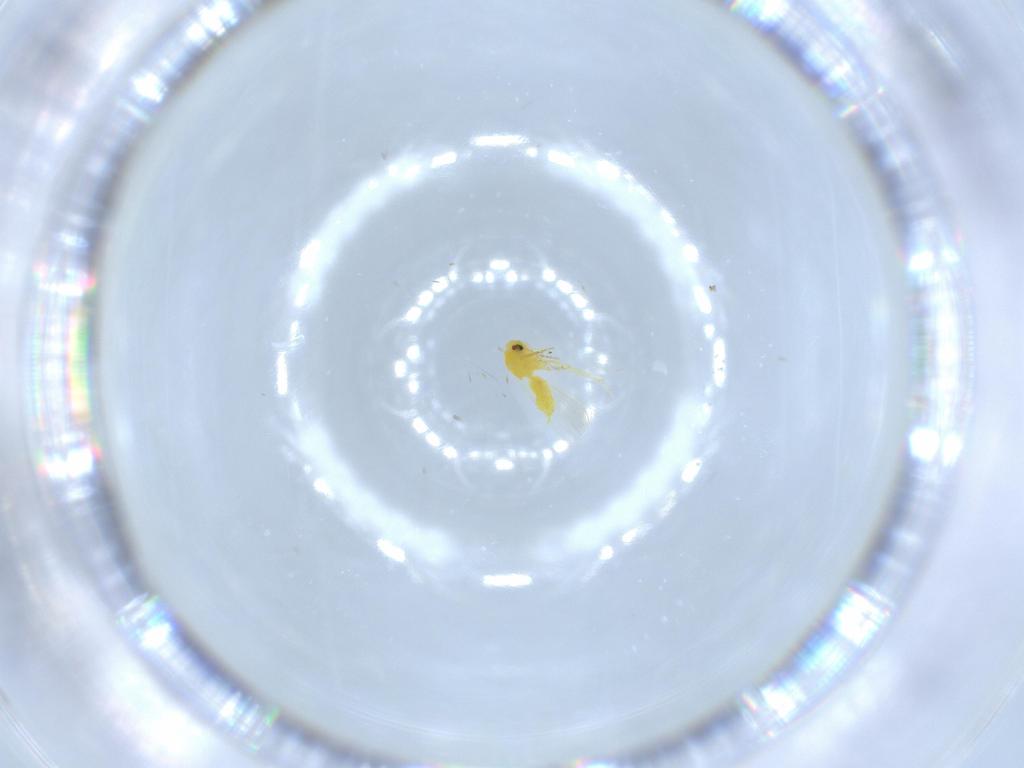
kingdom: Animalia
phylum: Arthropoda
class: Insecta
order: Hemiptera
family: Aleyrodidae
